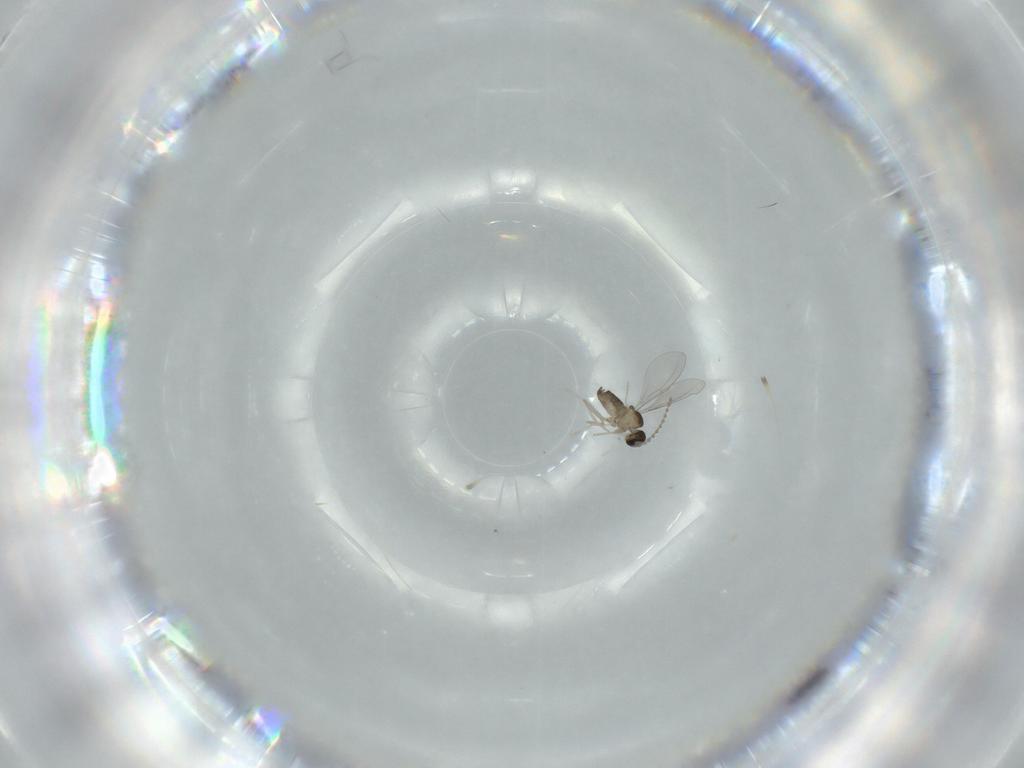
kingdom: Animalia
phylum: Arthropoda
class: Insecta
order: Diptera
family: Cecidomyiidae
